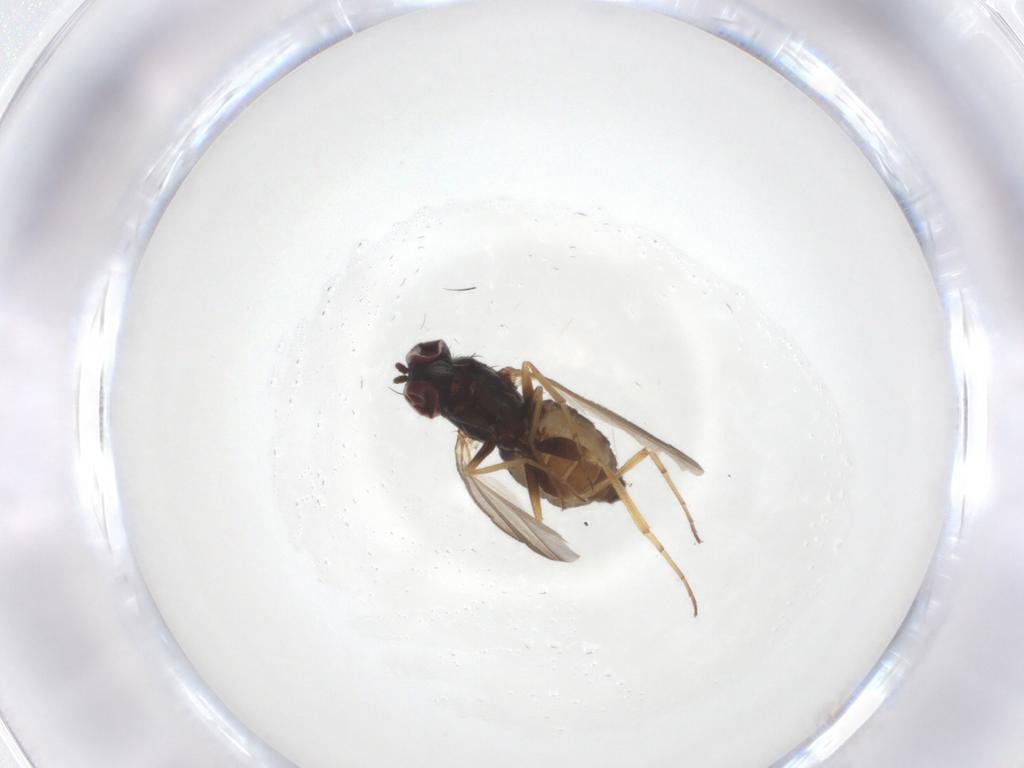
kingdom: Animalia
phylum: Arthropoda
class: Insecta
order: Diptera
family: Dolichopodidae
